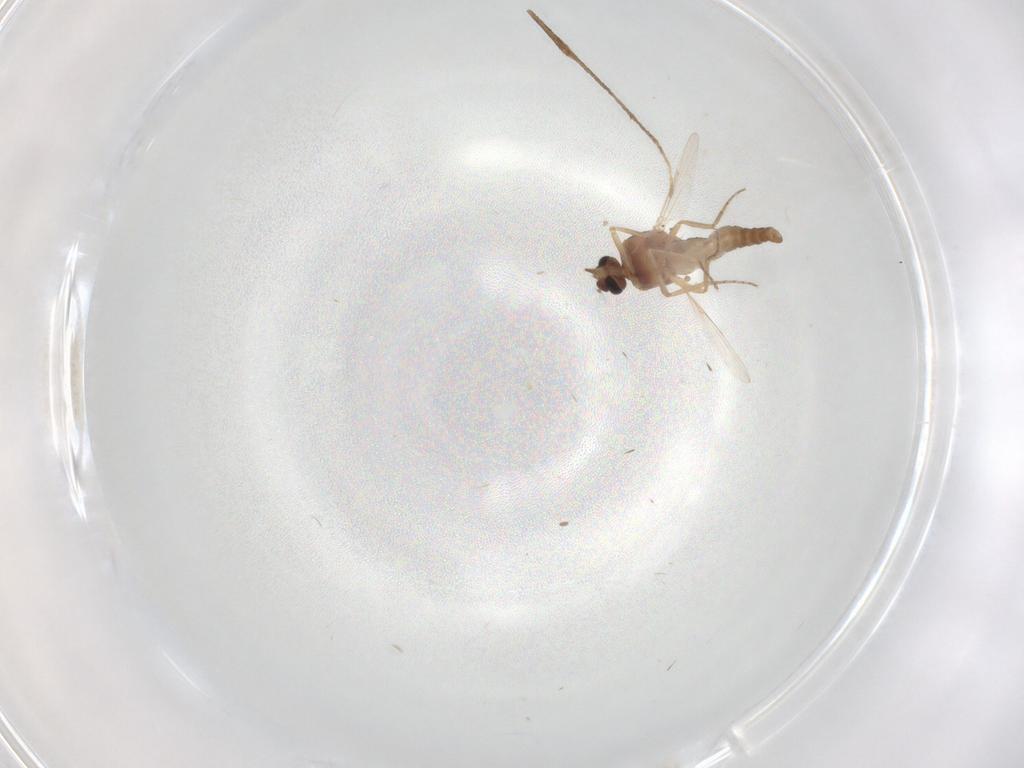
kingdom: Animalia
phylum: Arthropoda
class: Insecta
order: Diptera
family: Ceratopogonidae
